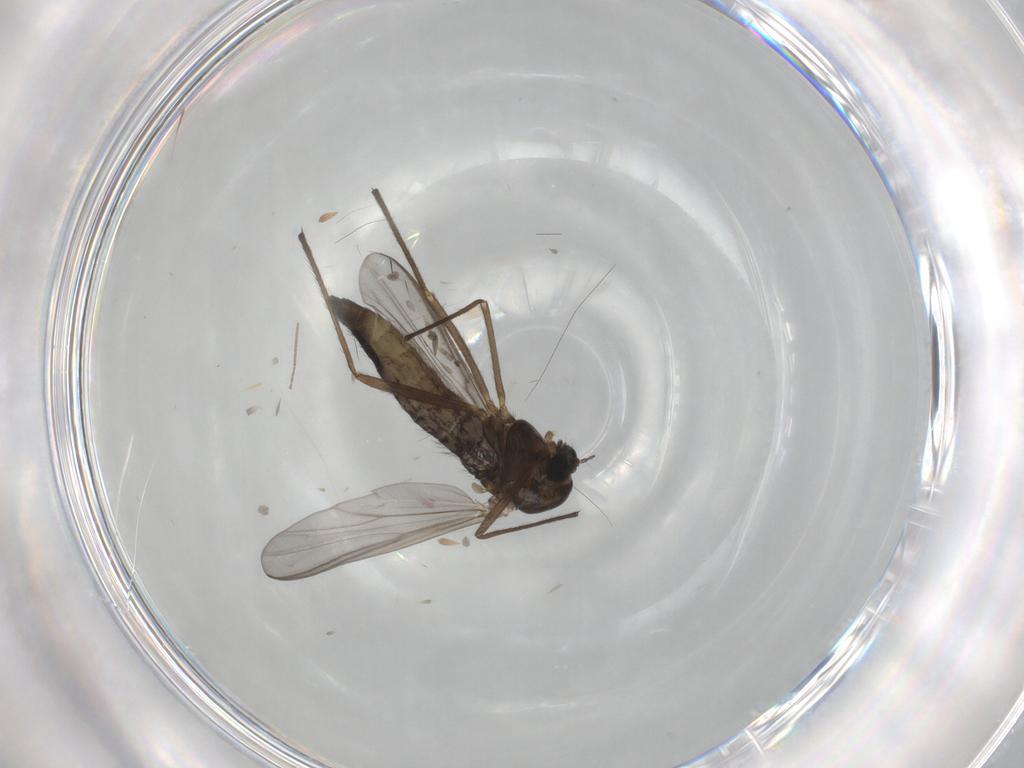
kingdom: Animalia
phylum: Arthropoda
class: Insecta
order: Diptera
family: Chironomidae
